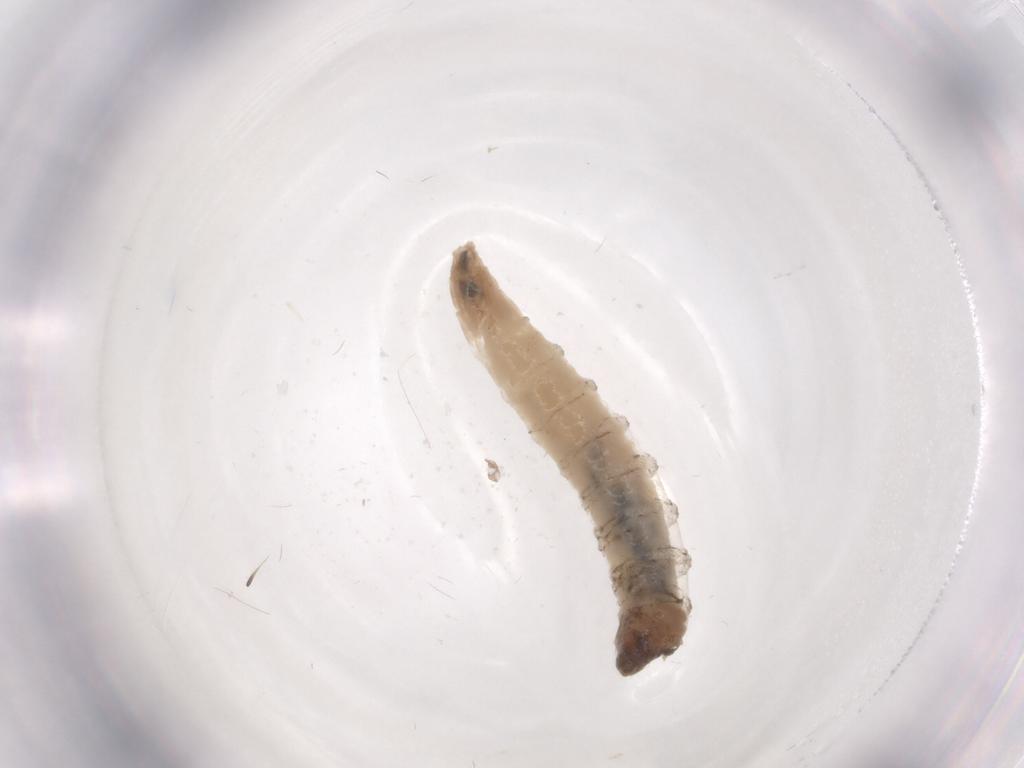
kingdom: Animalia
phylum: Arthropoda
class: Insecta
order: Diptera
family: Cecidomyiidae
